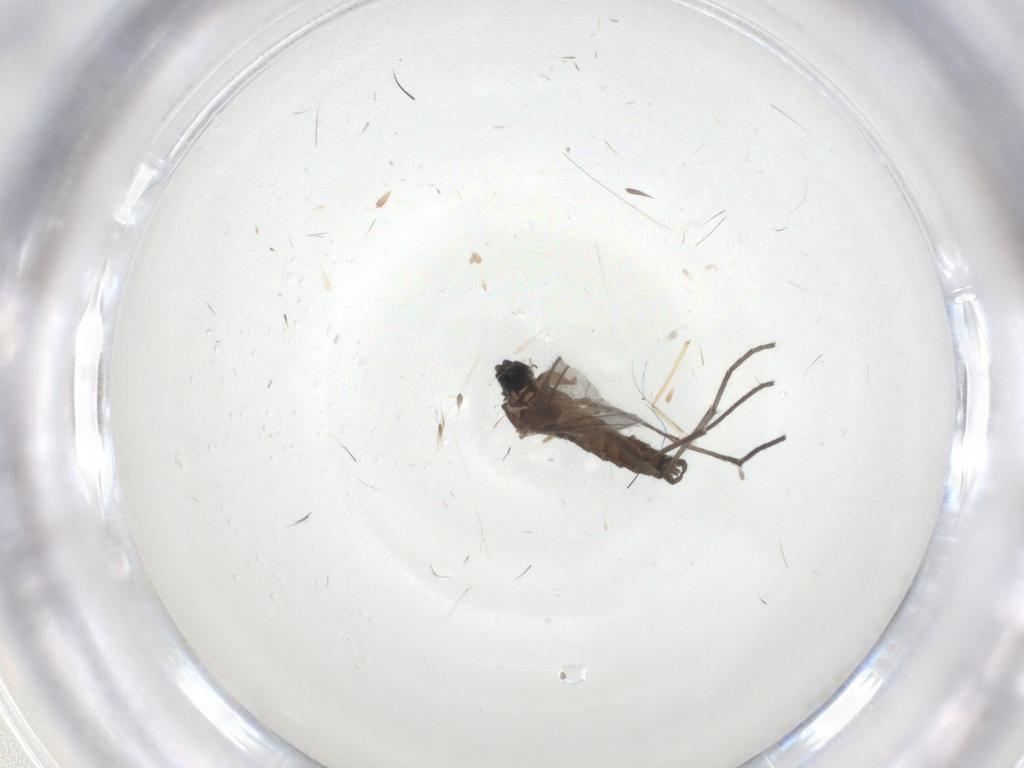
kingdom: Animalia
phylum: Arthropoda
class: Insecta
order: Diptera
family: Sciaridae
